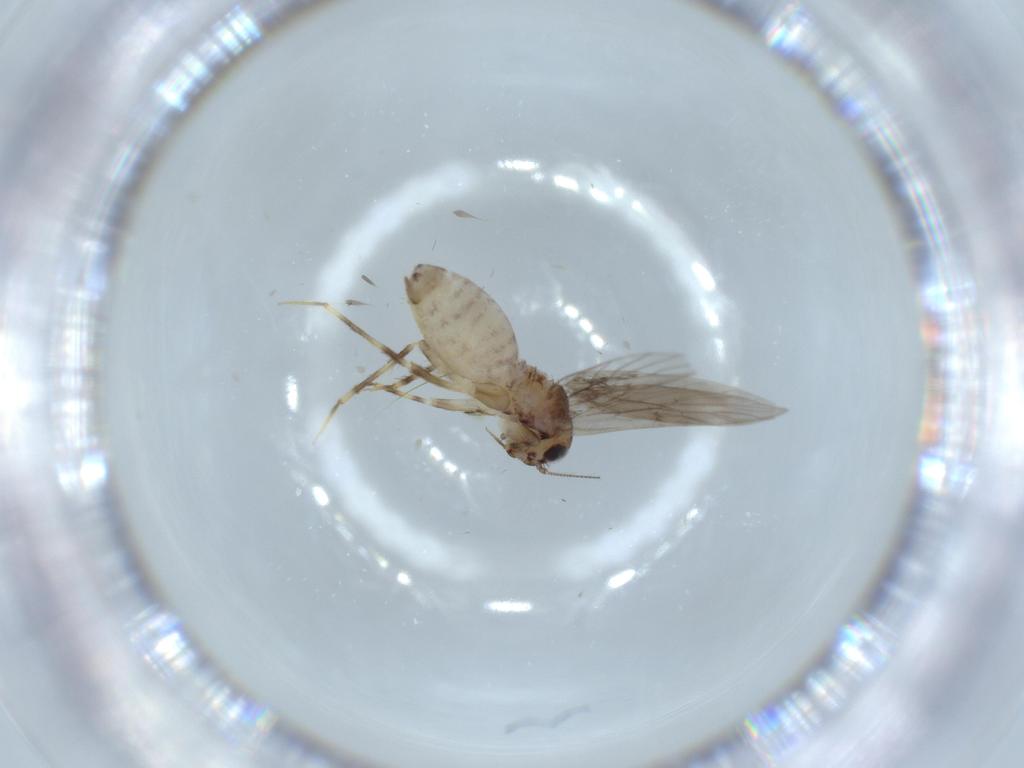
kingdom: Animalia
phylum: Arthropoda
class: Insecta
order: Psocodea
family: Lepidopsocidae
